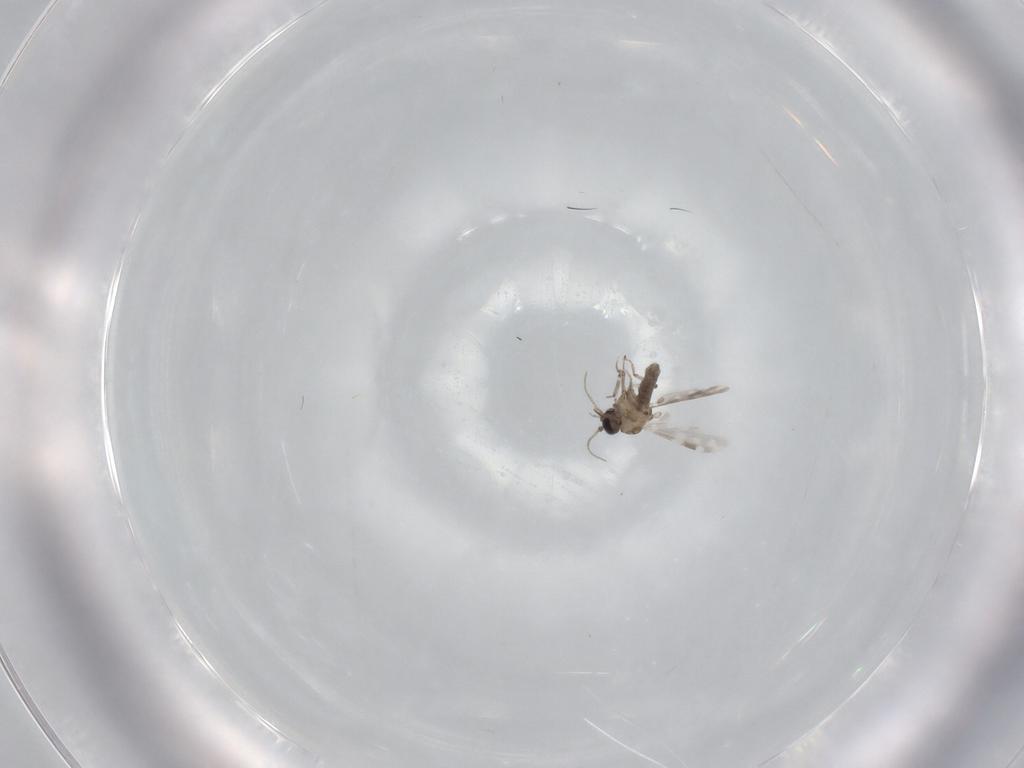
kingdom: Animalia
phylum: Arthropoda
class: Insecta
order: Diptera
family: Ceratopogonidae
